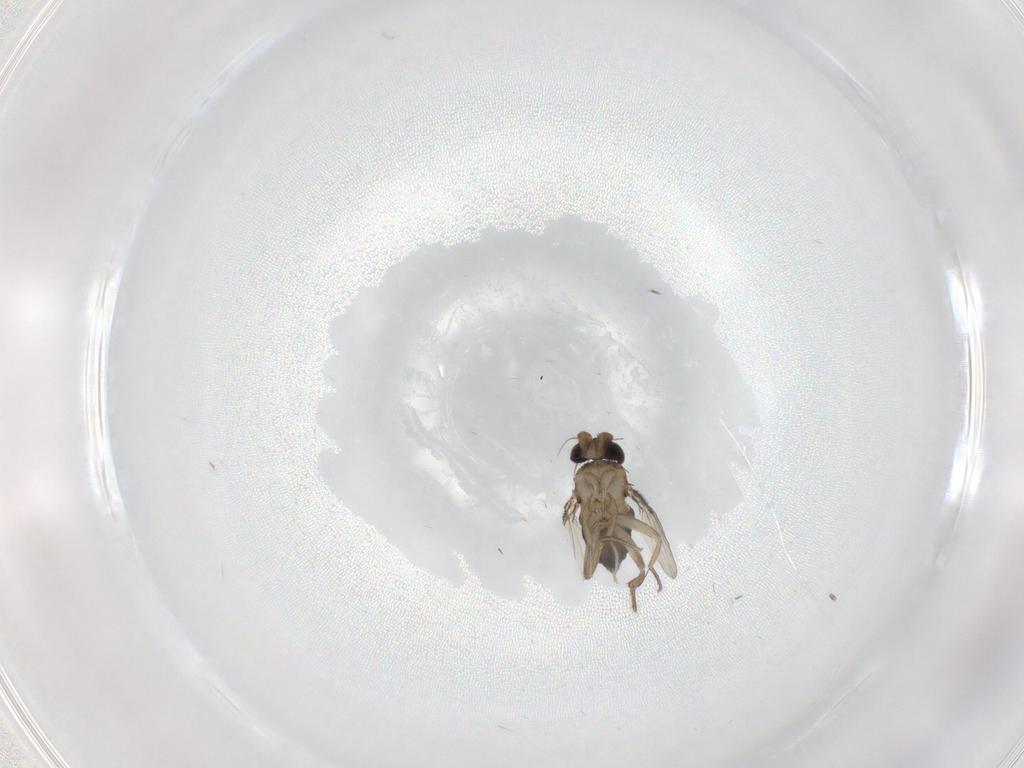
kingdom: Animalia
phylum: Arthropoda
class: Insecta
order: Diptera
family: Phoridae
